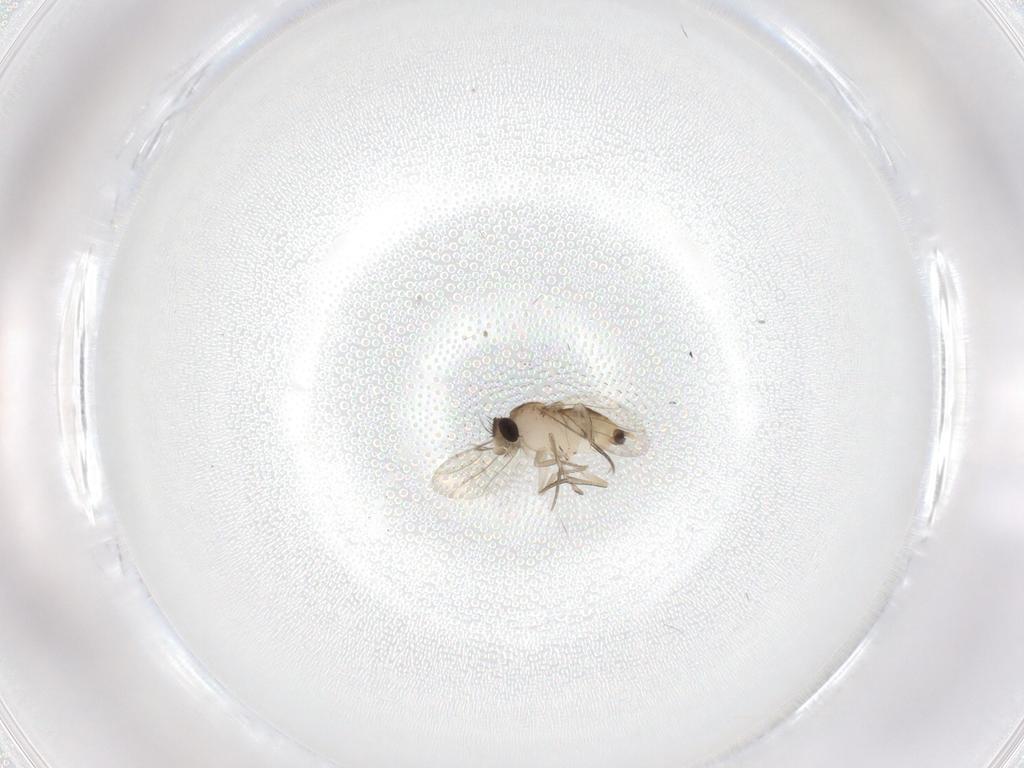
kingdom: Animalia
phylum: Arthropoda
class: Insecta
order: Diptera
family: Phoridae
